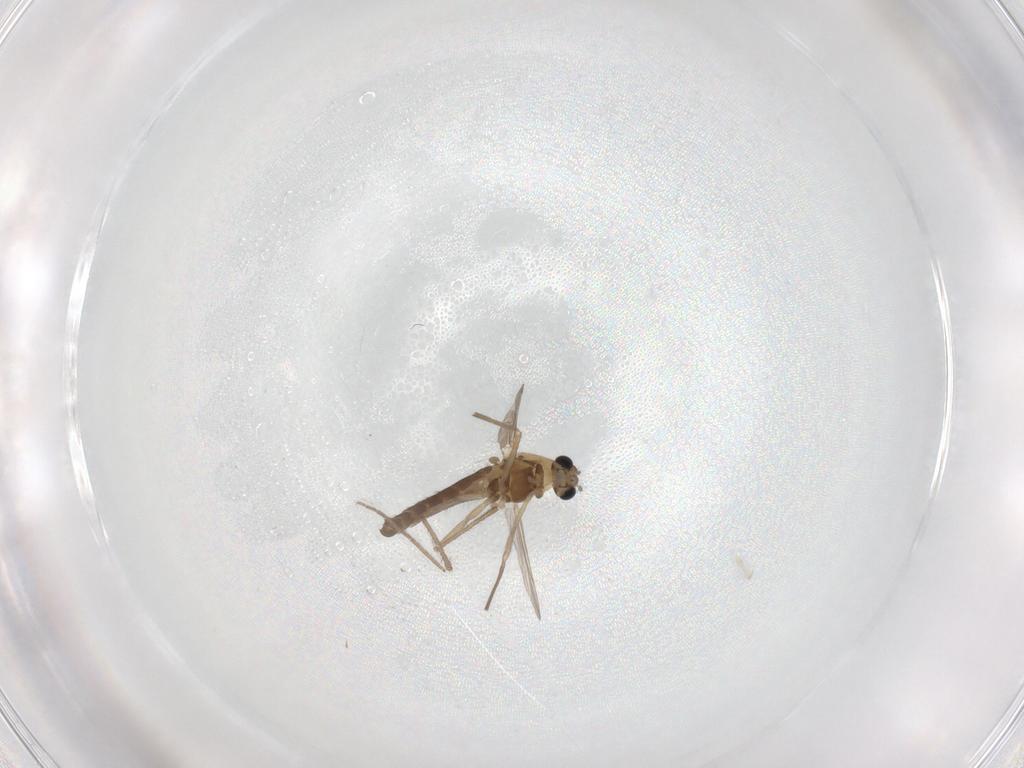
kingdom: Animalia
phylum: Arthropoda
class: Insecta
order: Diptera
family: Chironomidae
